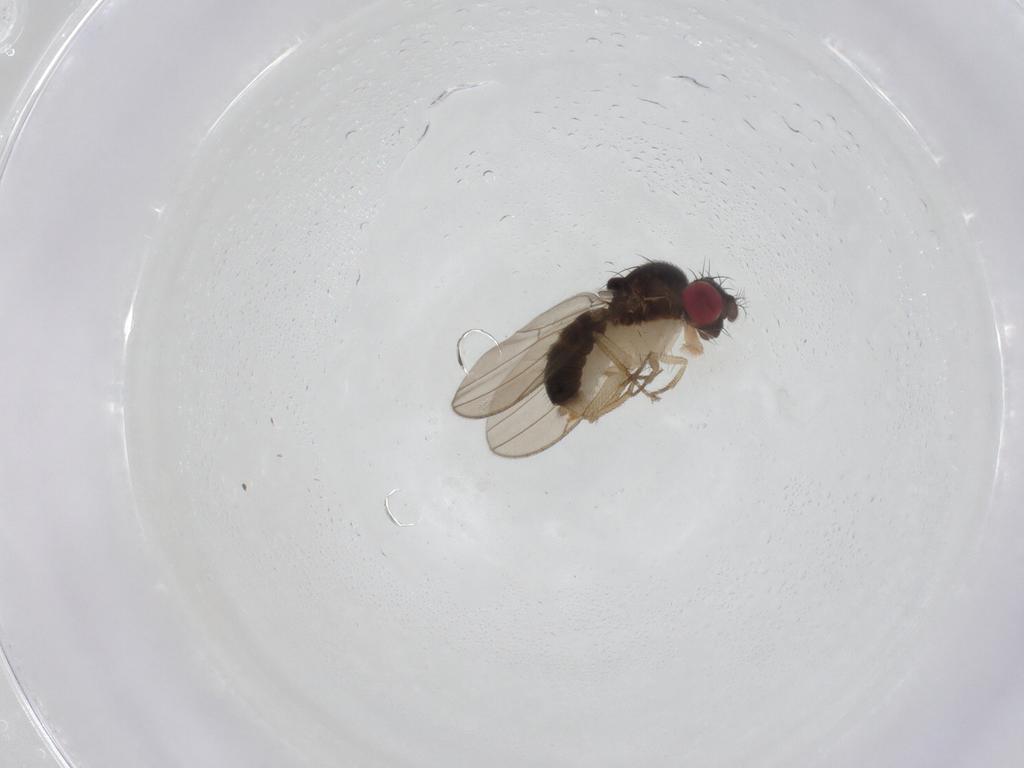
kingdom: Animalia
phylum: Arthropoda
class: Insecta
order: Diptera
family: Drosophilidae
